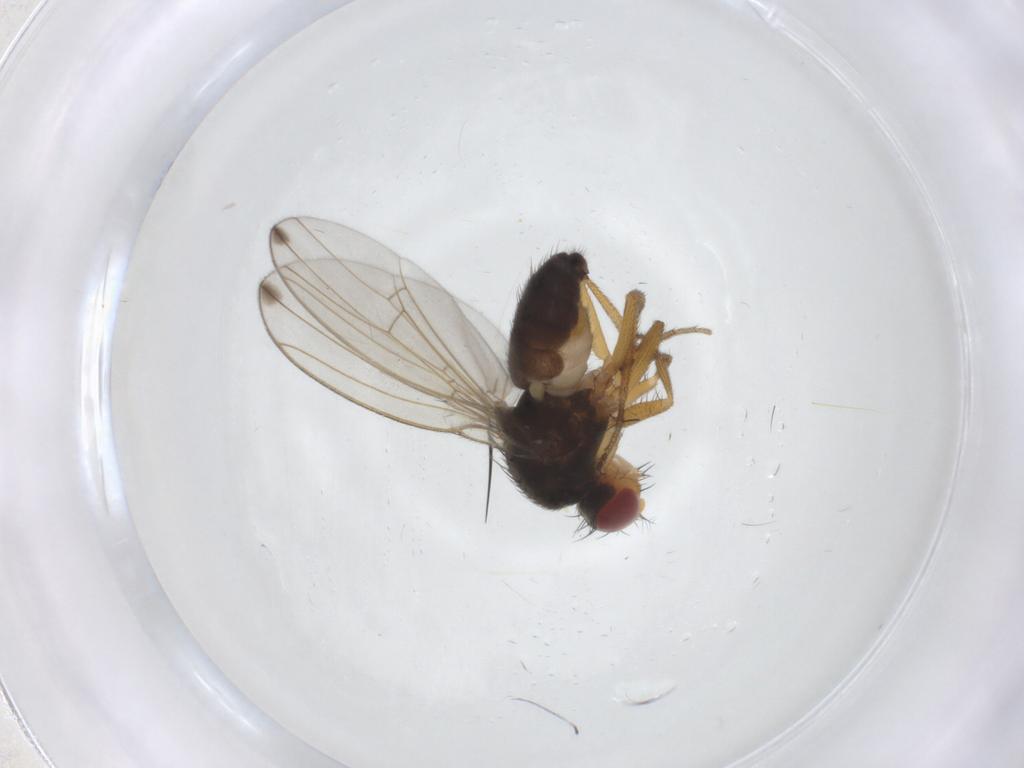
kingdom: Animalia
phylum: Arthropoda
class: Insecta
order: Diptera
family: Drosophilidae
